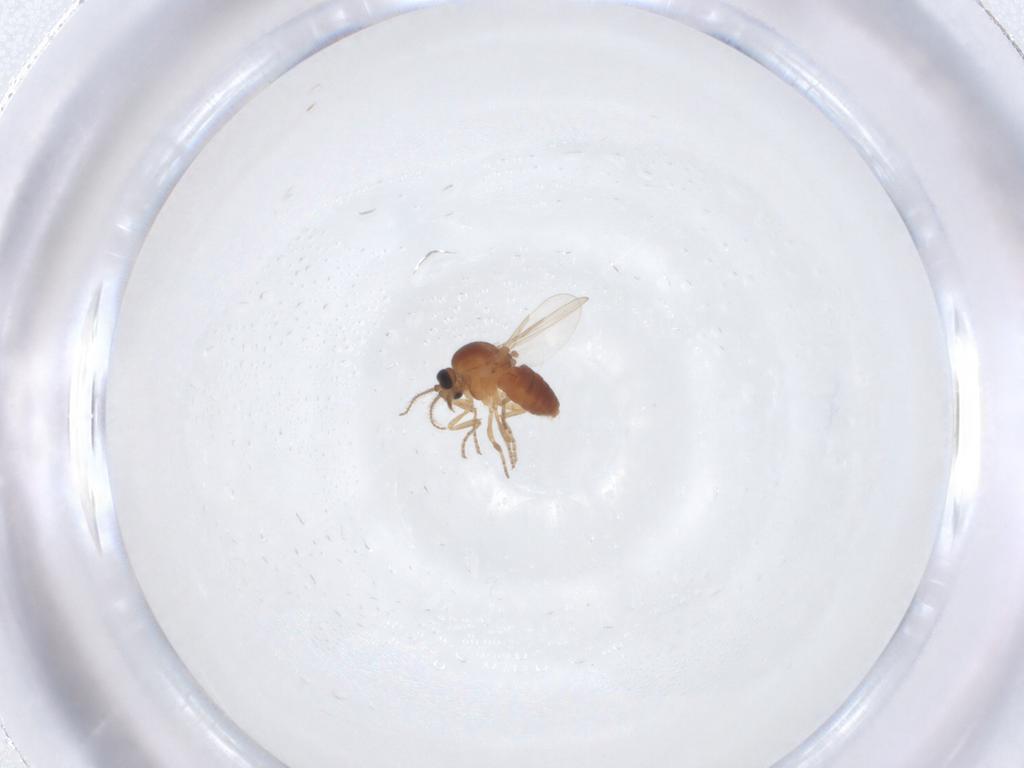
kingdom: Animalia
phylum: Arthropoda
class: Insecta
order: Diptera
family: Ceratopogonidae
